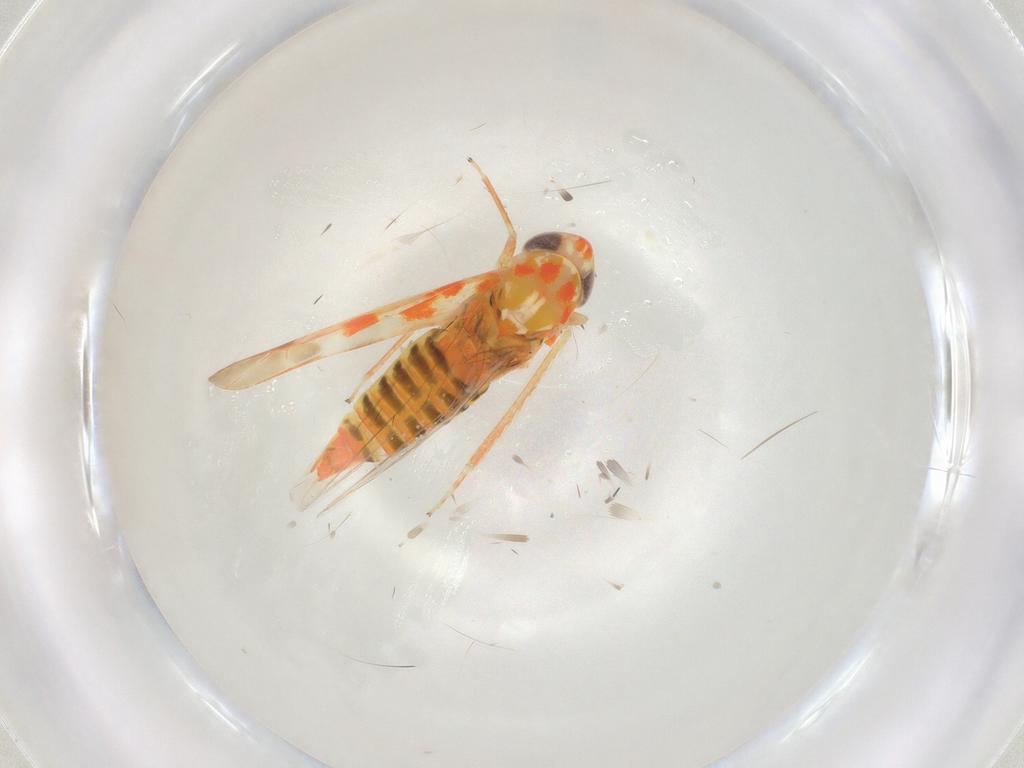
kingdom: Animalia
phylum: Arthropoda
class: Insecta
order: Hemiptera
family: Cicadellidae
